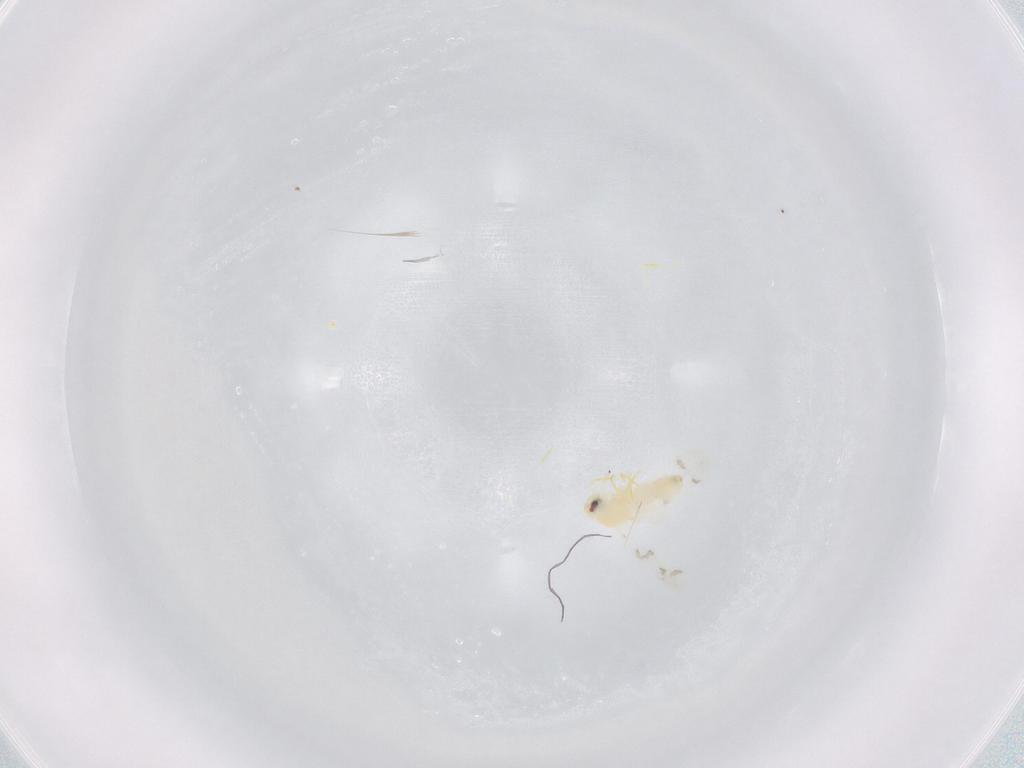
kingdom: Animalia
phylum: Arthropoda
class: Insecta
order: Hemiptera
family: Aleyrodidae
